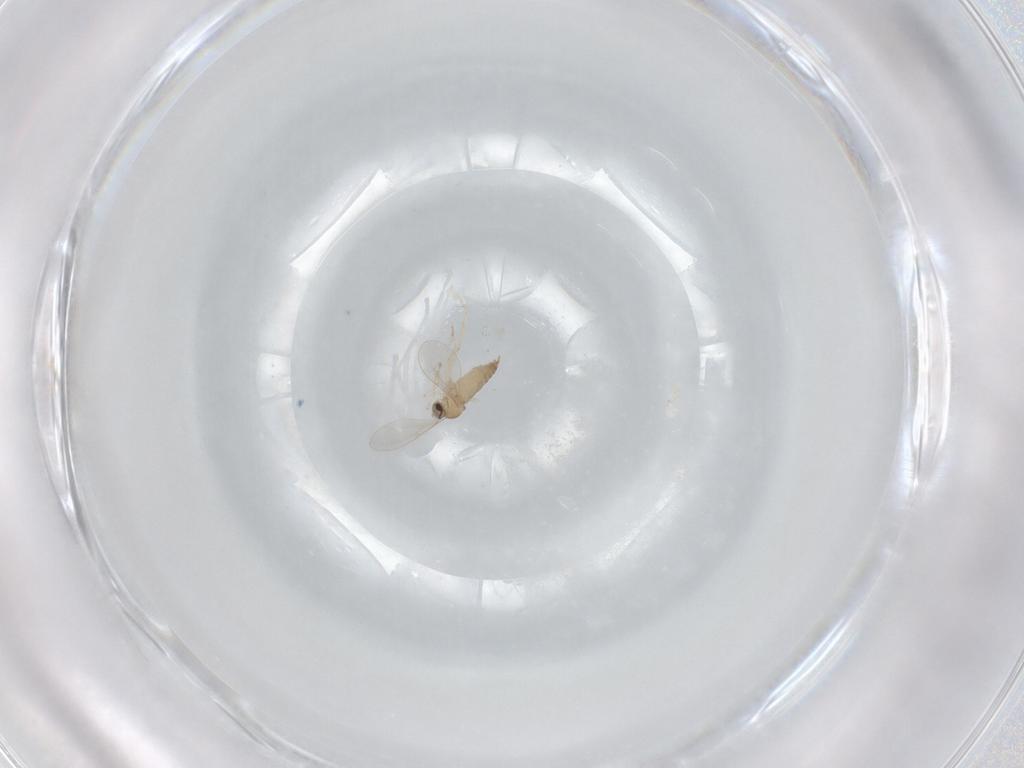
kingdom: Animalia
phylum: Arthropoda
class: Insecta
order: Diptera
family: Cecidomyiidae
